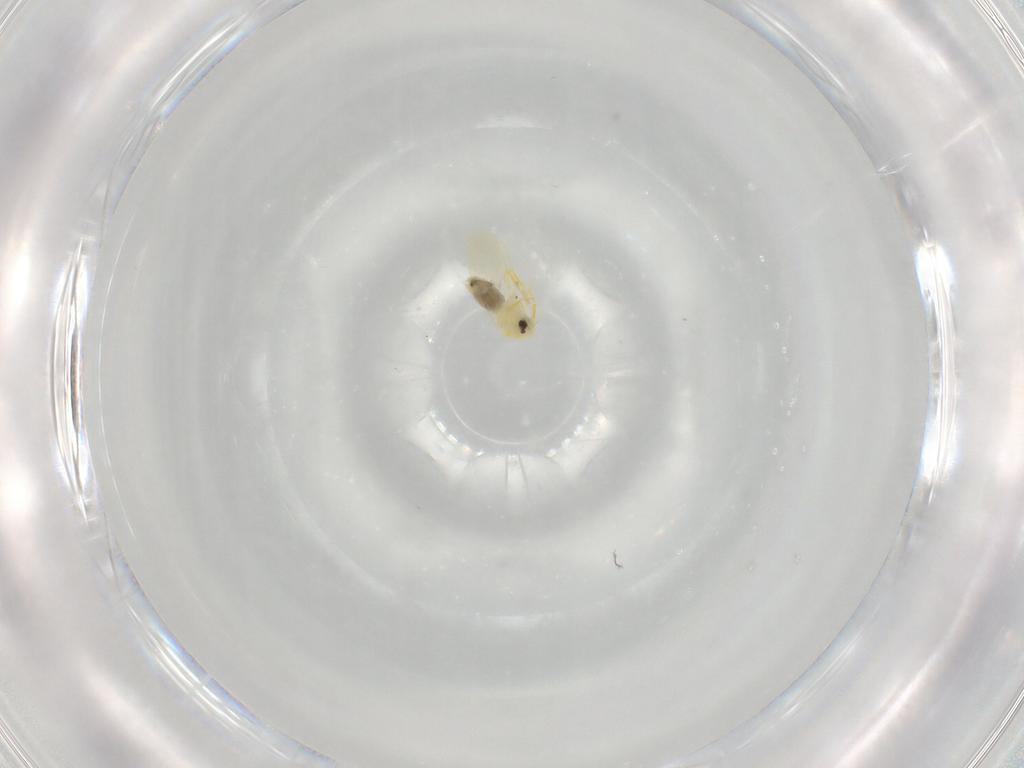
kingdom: Animalia
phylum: Arthropoda
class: Insecta
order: Hemiptera
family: Aleyrodidae
